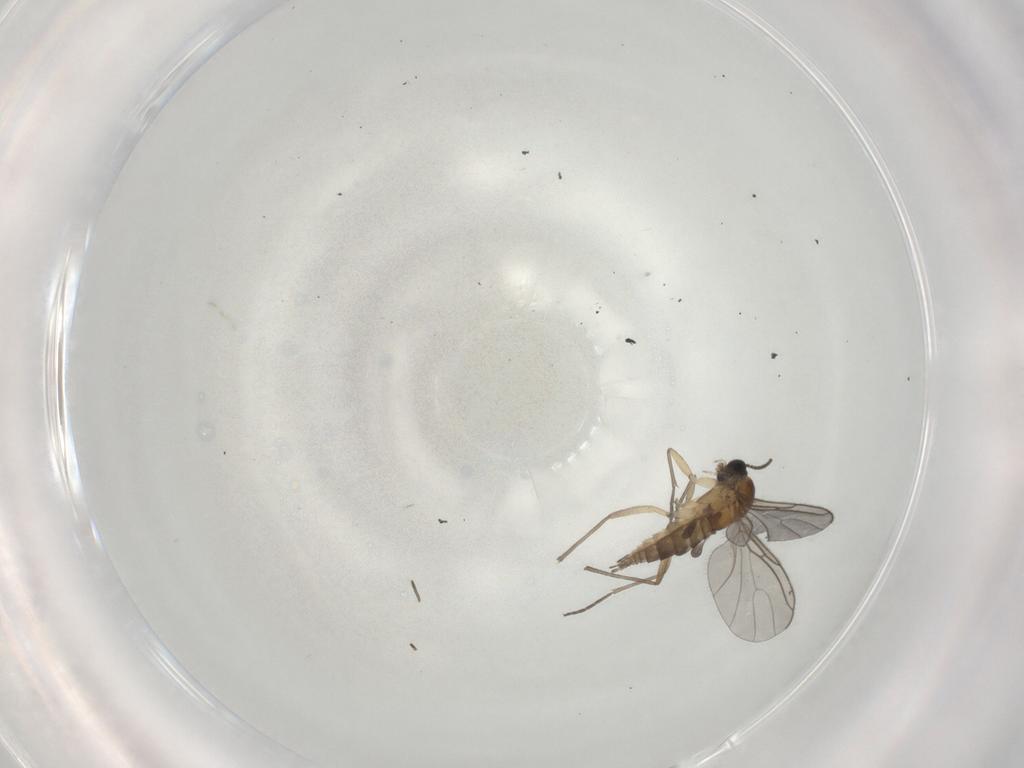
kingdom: Animalia
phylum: Arthropoda
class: Insecta
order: Diptera
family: Sciaridae
